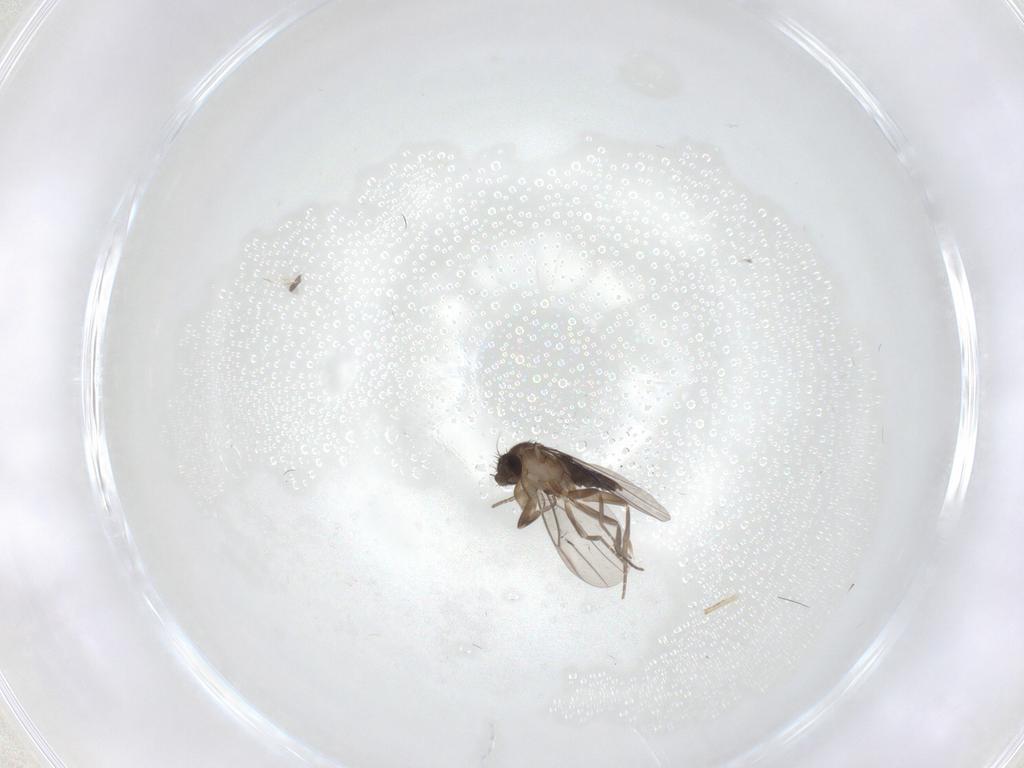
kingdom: Animalia
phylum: Arthropoda
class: Insecta
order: Diptera
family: Phoridae
